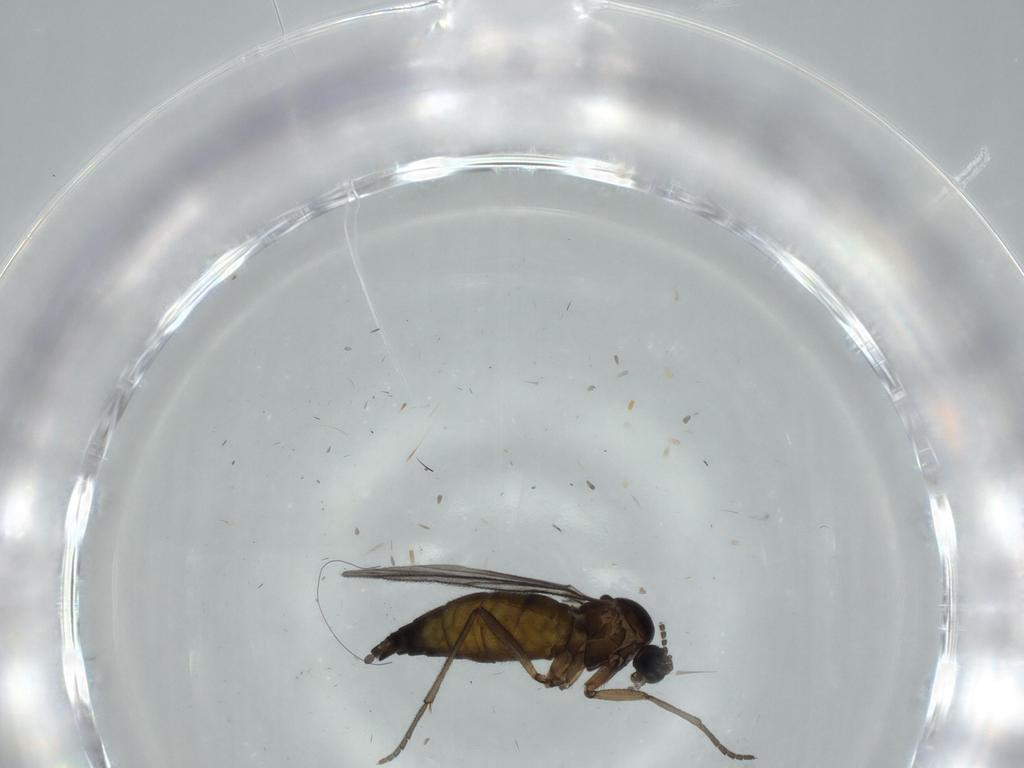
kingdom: Animalia
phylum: Arthropoda
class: Insecta
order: Diptera
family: Sciaridae
